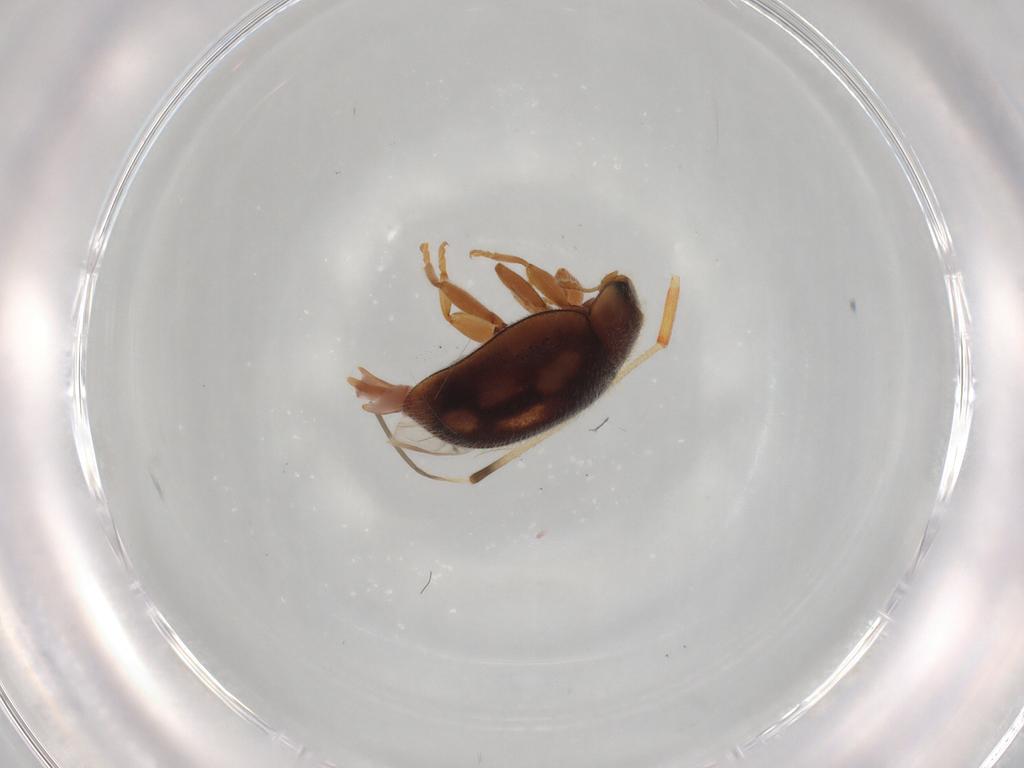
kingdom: Animalia
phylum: Arthropoda
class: Insecta
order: Coleoptera
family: Coccinellidae
